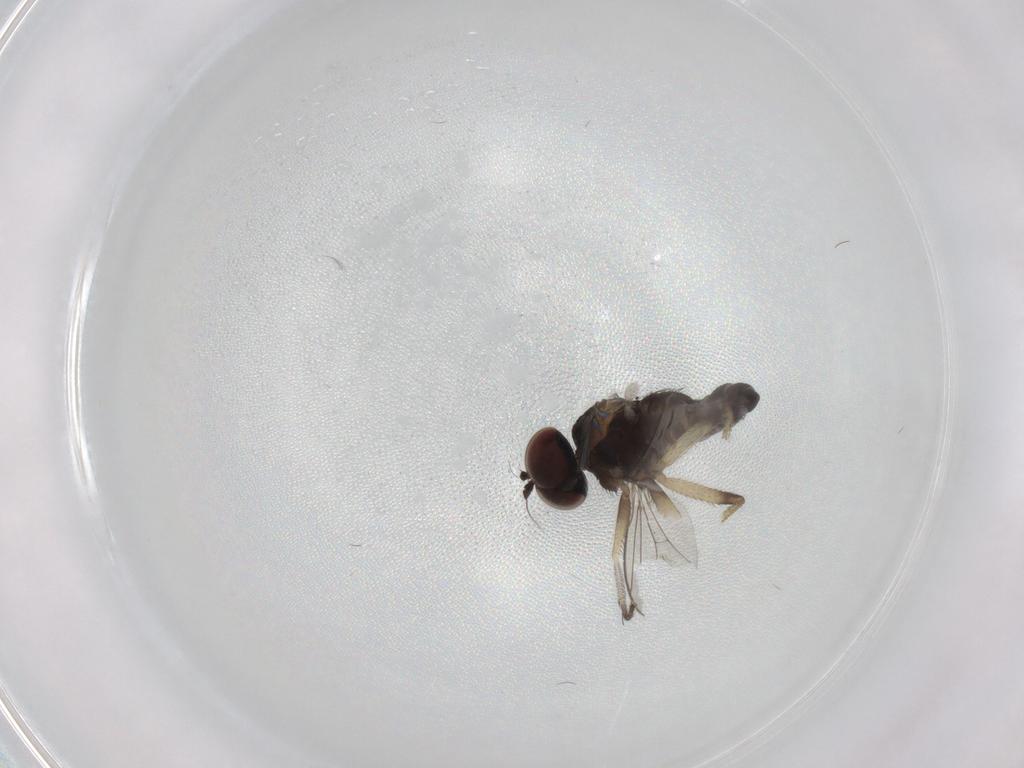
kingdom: Animalia
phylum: Arthropoda
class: Insecta
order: Diptera
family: Dolichopodidae
